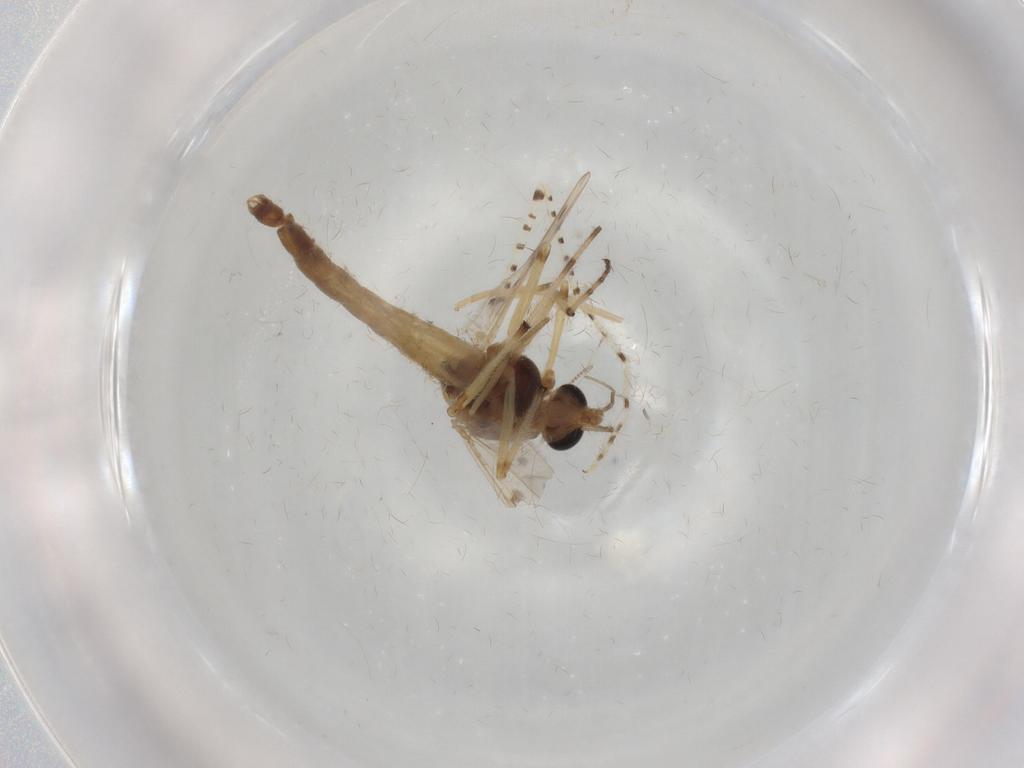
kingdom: Animalia
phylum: Arthropoda
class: Insecta
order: Diptera
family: Chironomidae
